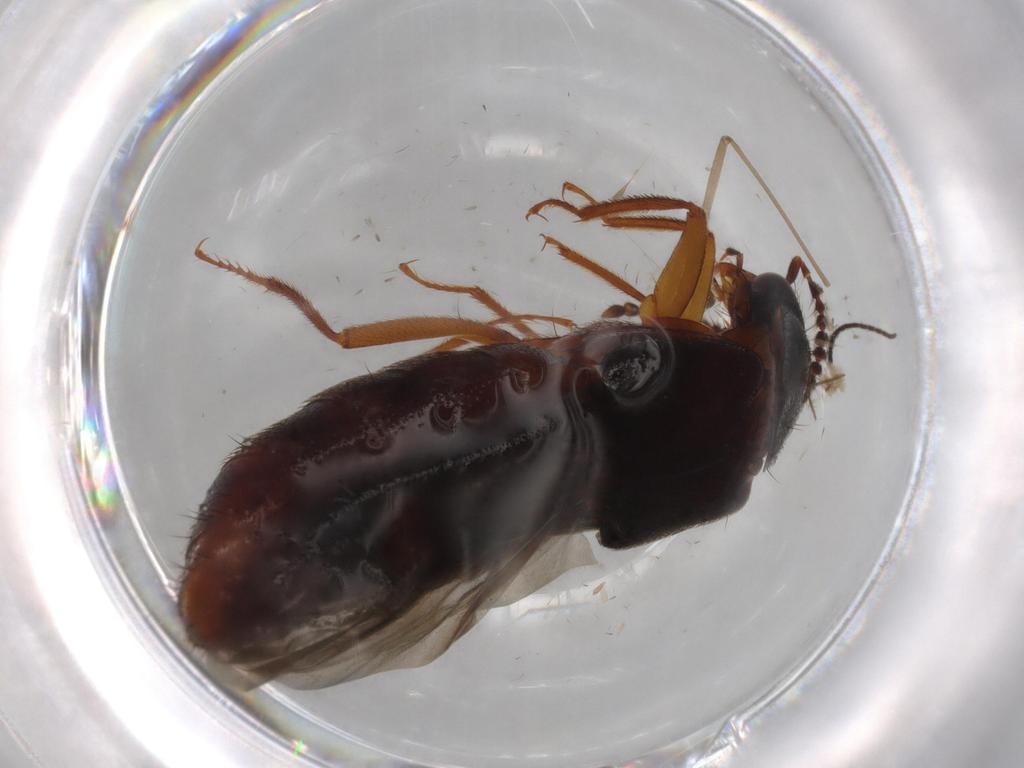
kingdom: Animalia
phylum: Arthropoda
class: Insecta
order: Coleoptera
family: Staphylinidae
